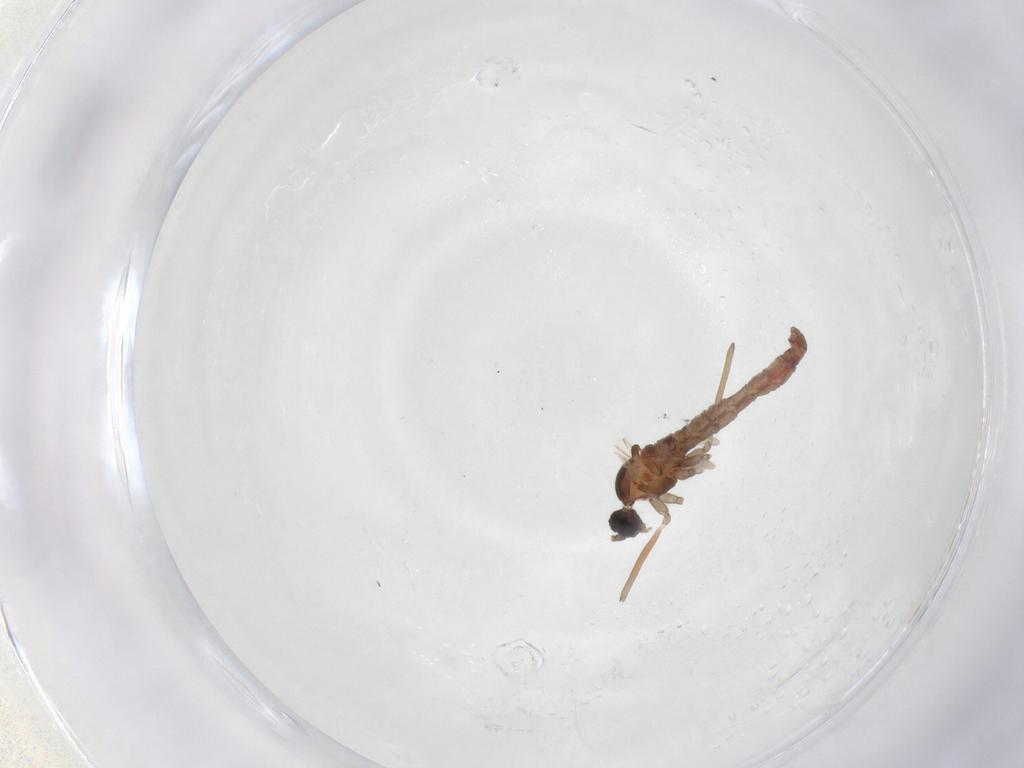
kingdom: Animalia
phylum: Arthropoda
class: Insecta
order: Diptera
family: Cecidomyiidae
